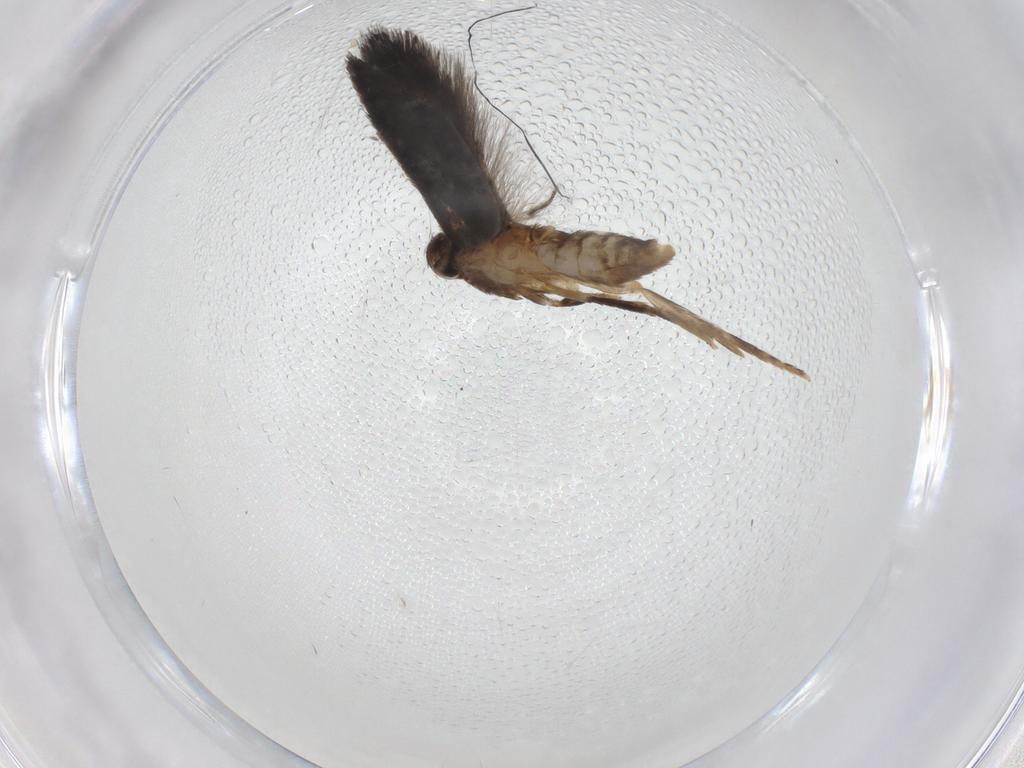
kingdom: Animalia
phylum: Arthropoda
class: Insecta
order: Lepidoptera
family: Elachistidae
